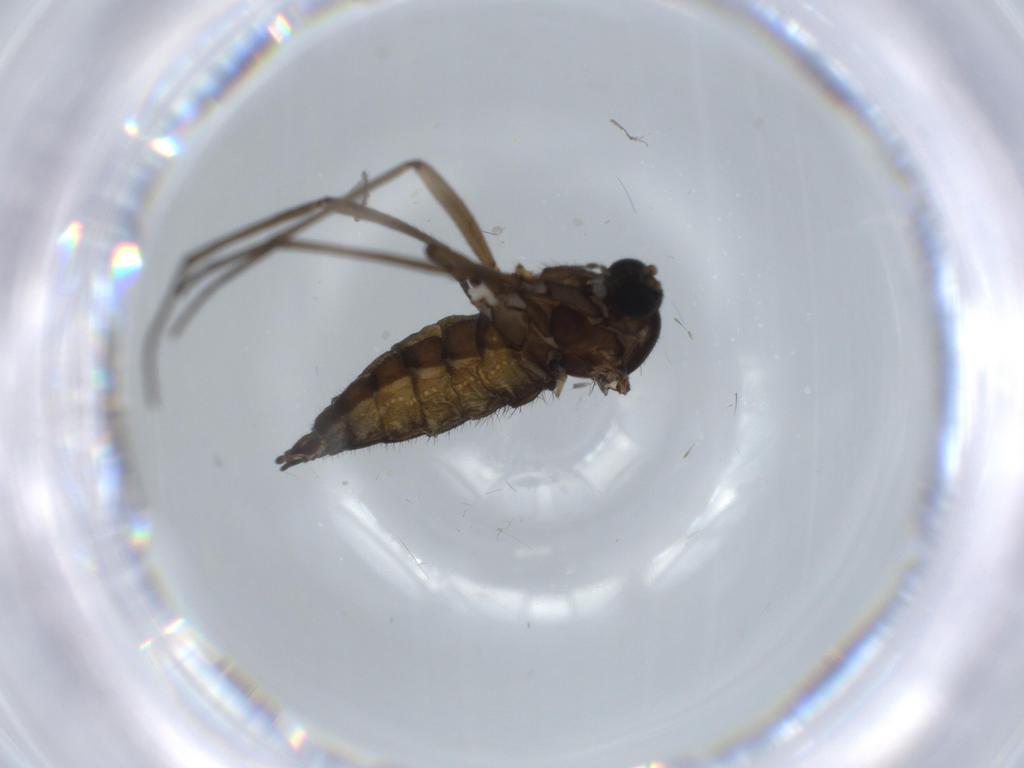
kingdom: Animalia
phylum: Arthropoda
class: Insecta
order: Diptera
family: Sciaridae
